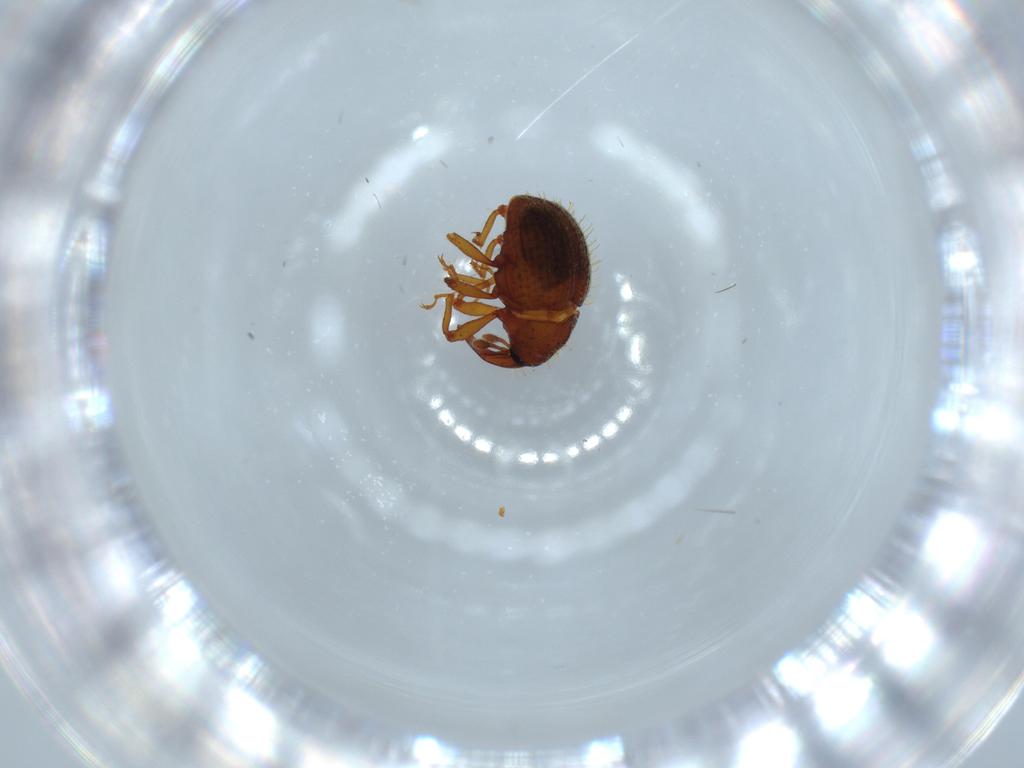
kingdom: Animalia
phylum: Arthropoda
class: Insecta
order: Coleoptera
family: Curculionidae
